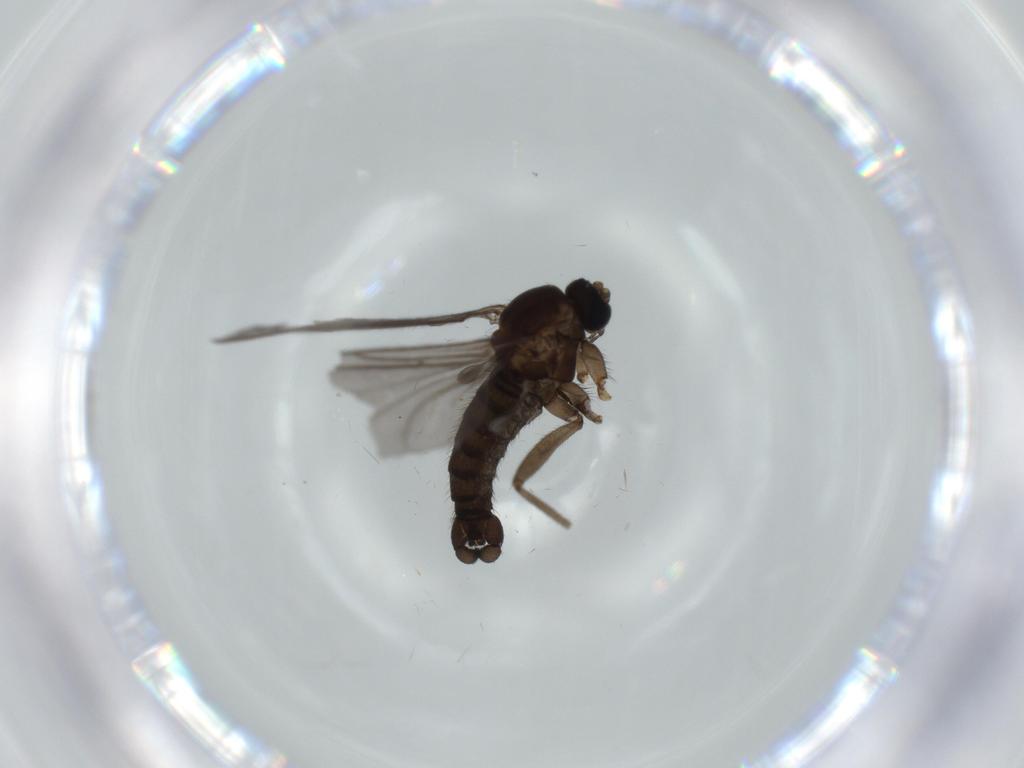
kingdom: Animalia
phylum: Arthropoda
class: Insecta
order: Diptera
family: Sciaridae
